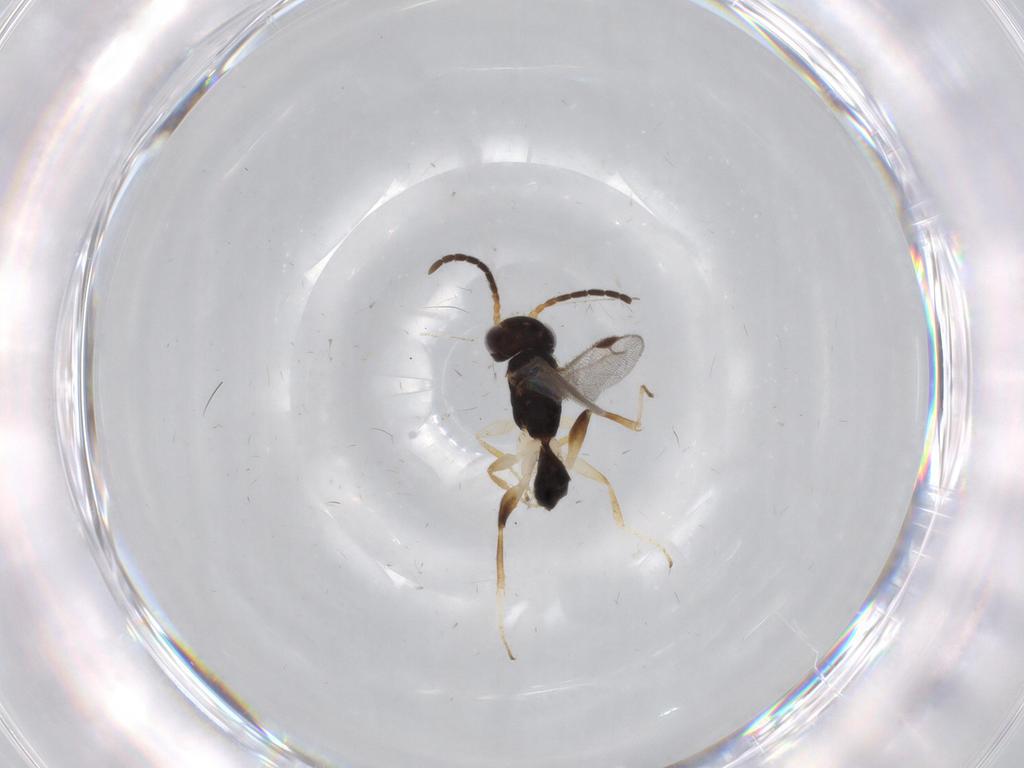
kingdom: Animalia
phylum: Arthropoda
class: Insecta
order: Hymenoptera
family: Dryinidae
